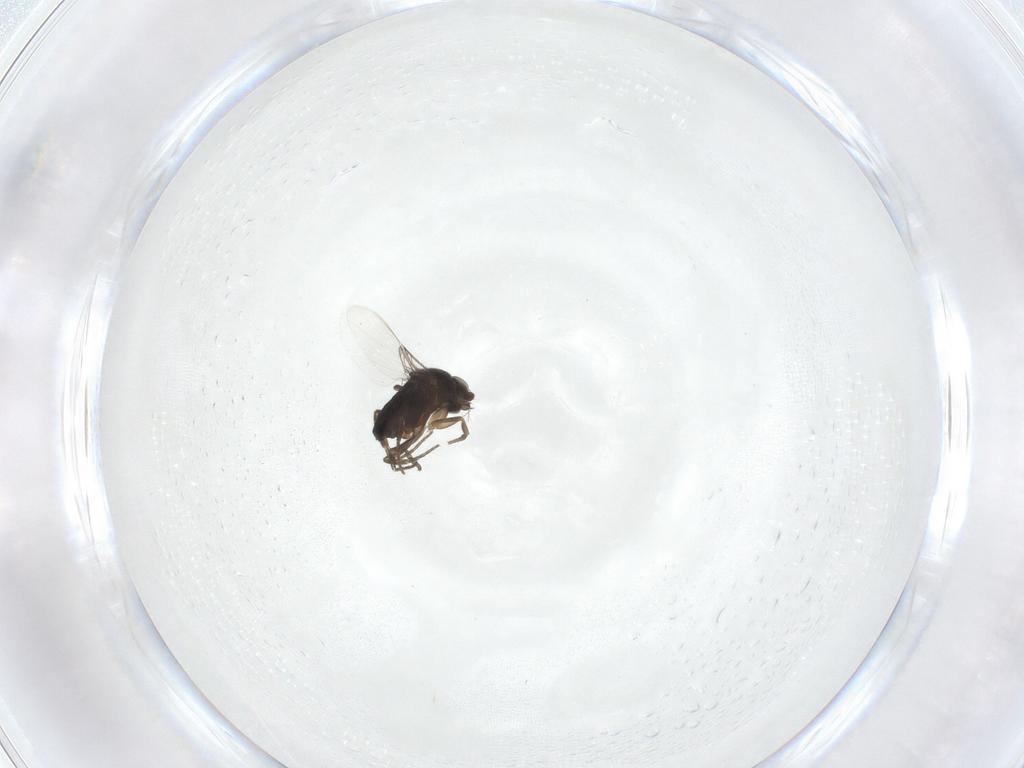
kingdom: Animalia
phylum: Arthropoda
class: Insecta
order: Diptera
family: Phoridae
